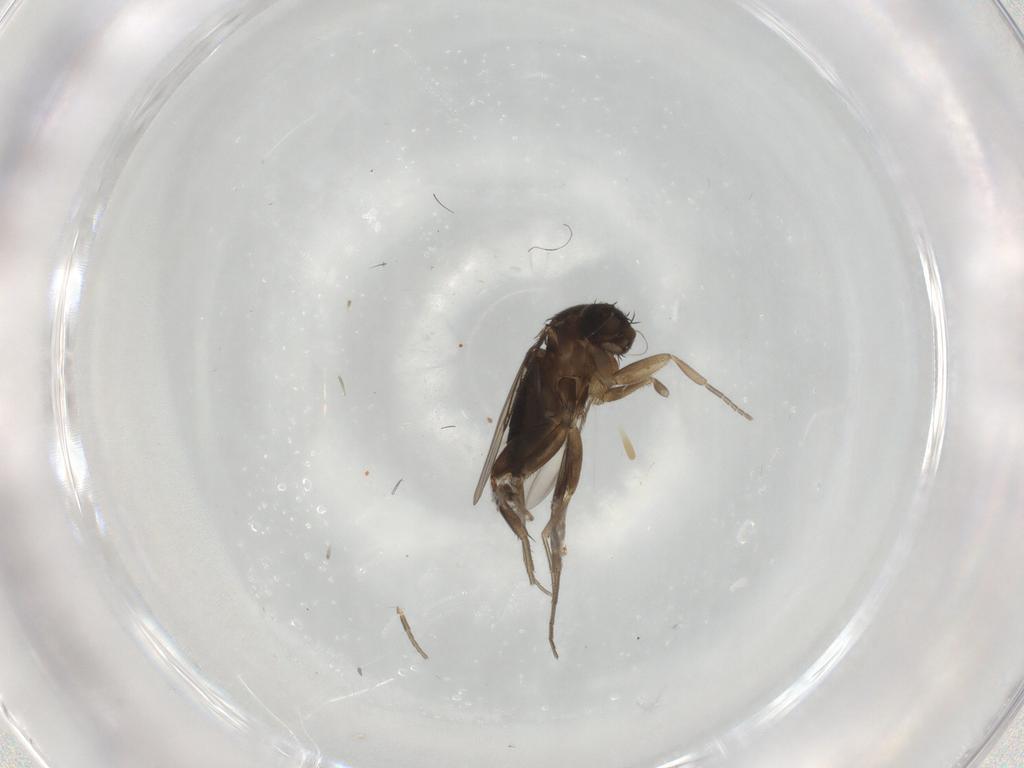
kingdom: Animalia
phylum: Arthropoda
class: Insecta
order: Diptera
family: Phoridae
